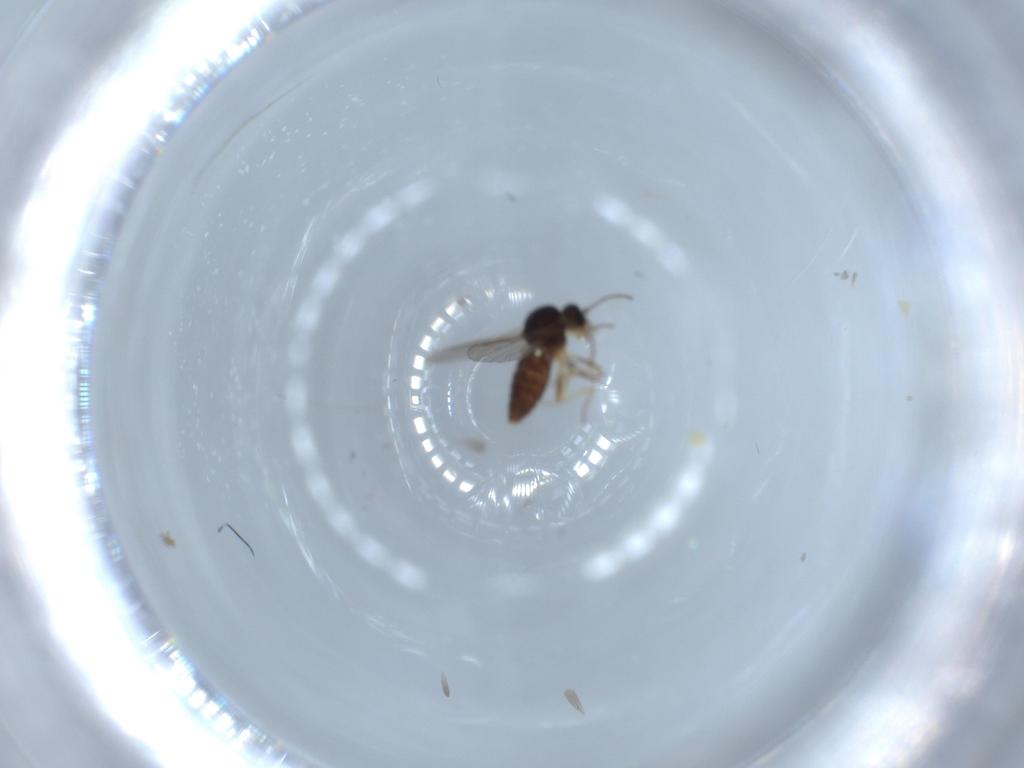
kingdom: Animalia
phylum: Arthropoda
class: Insecta
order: Diptera
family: Ceratopogonidae
